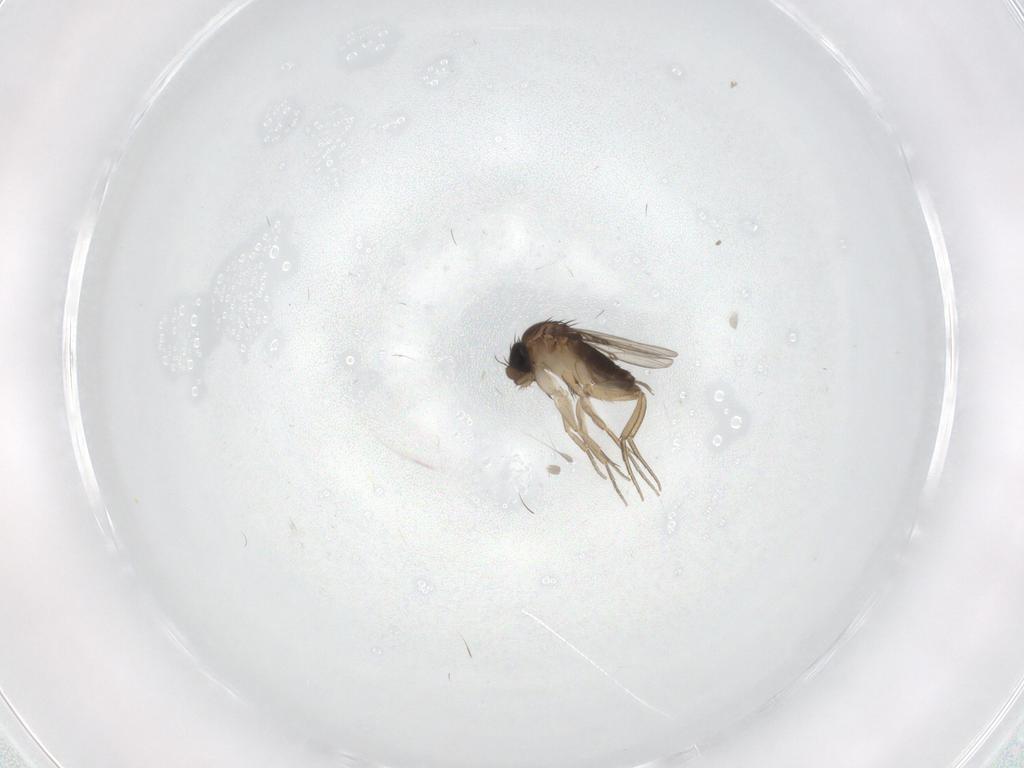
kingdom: Animalia
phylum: Arthropoda
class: Insecta
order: Diptera
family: Phoridae
